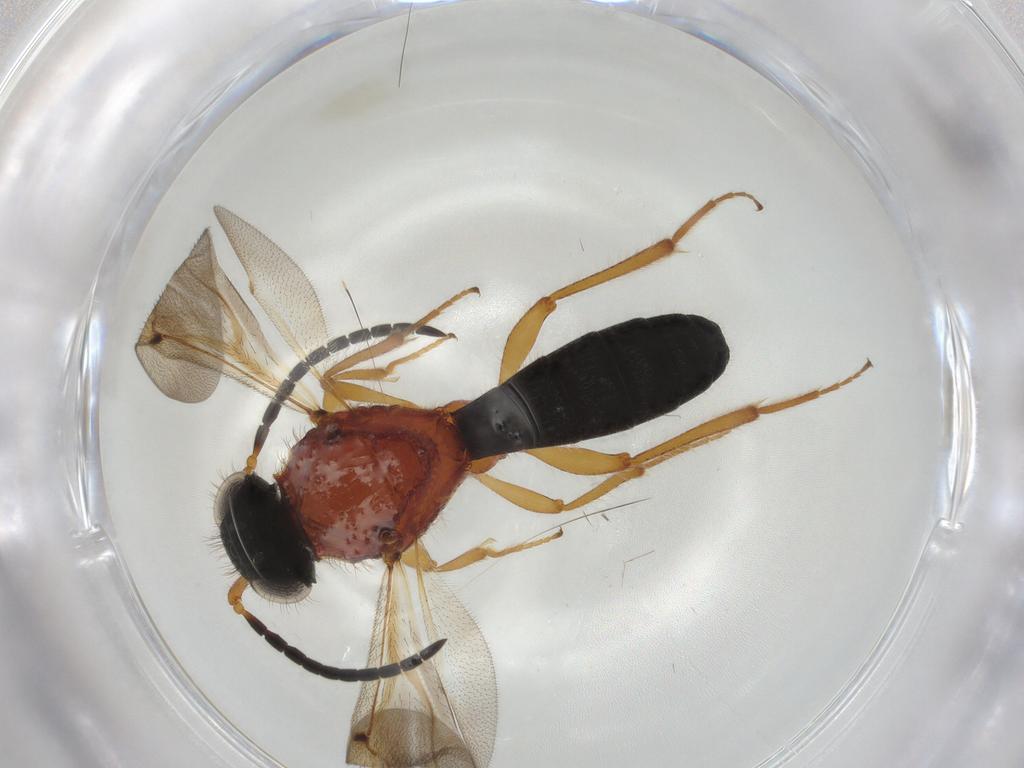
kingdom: Animalia
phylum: Arthropoda
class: Insecta
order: Hymenoptera
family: Scelionidae
